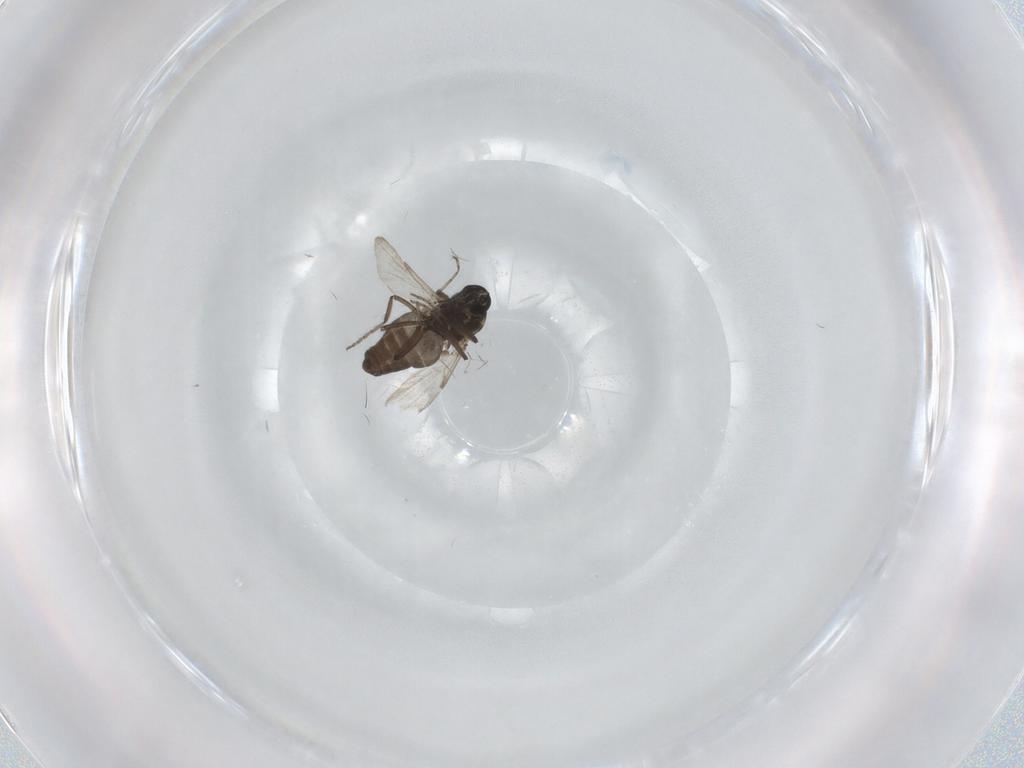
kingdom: Animalia
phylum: Arthropoda
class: Insecta
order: Diptera
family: Ceratopogonidae
